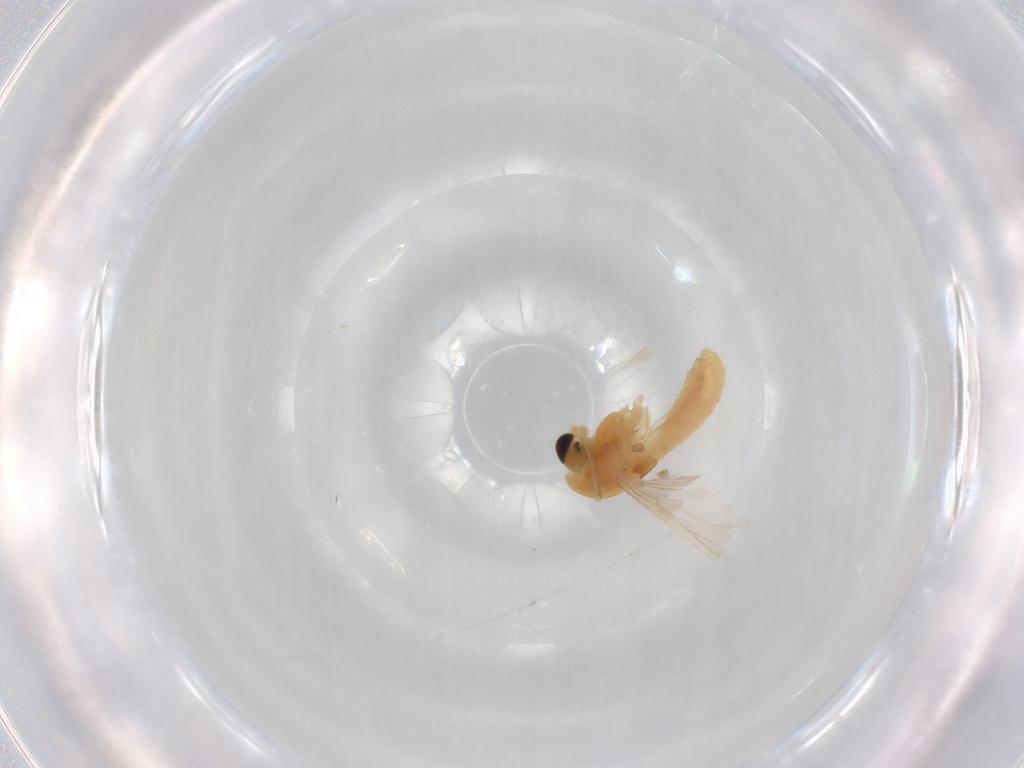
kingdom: Animalia
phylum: Arthropoda
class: Insecta
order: Diptera
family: Chironomidae
